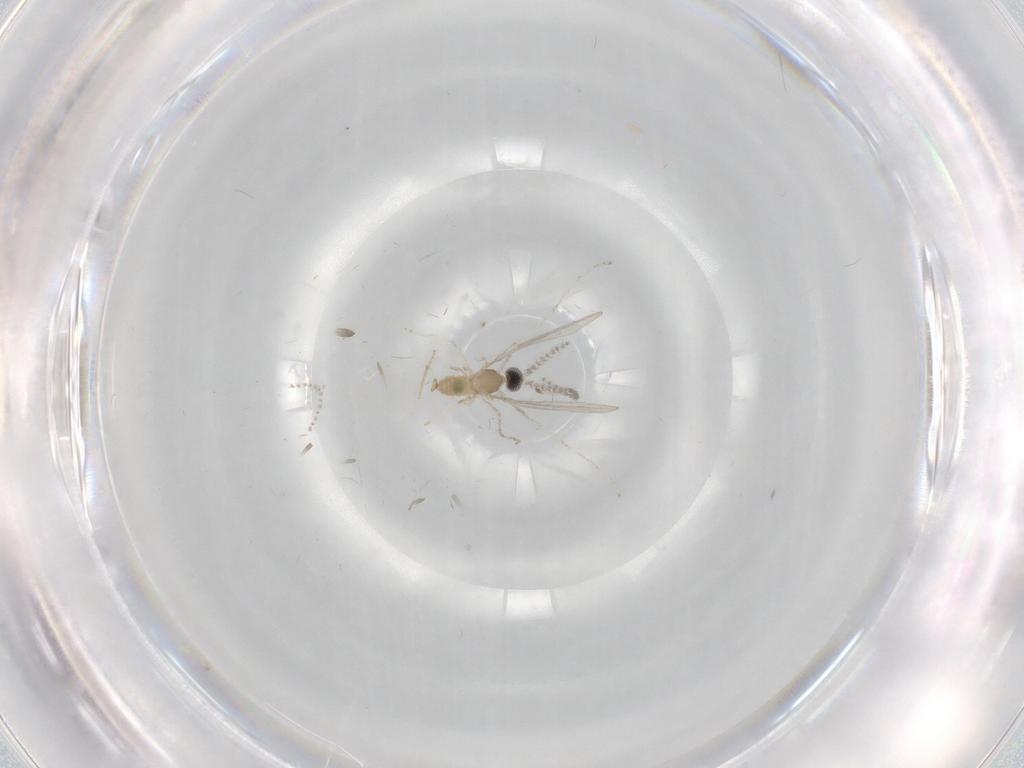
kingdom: Animalia
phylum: Arthropoda
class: Insecta
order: Diptera
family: Cecidomyiidae
